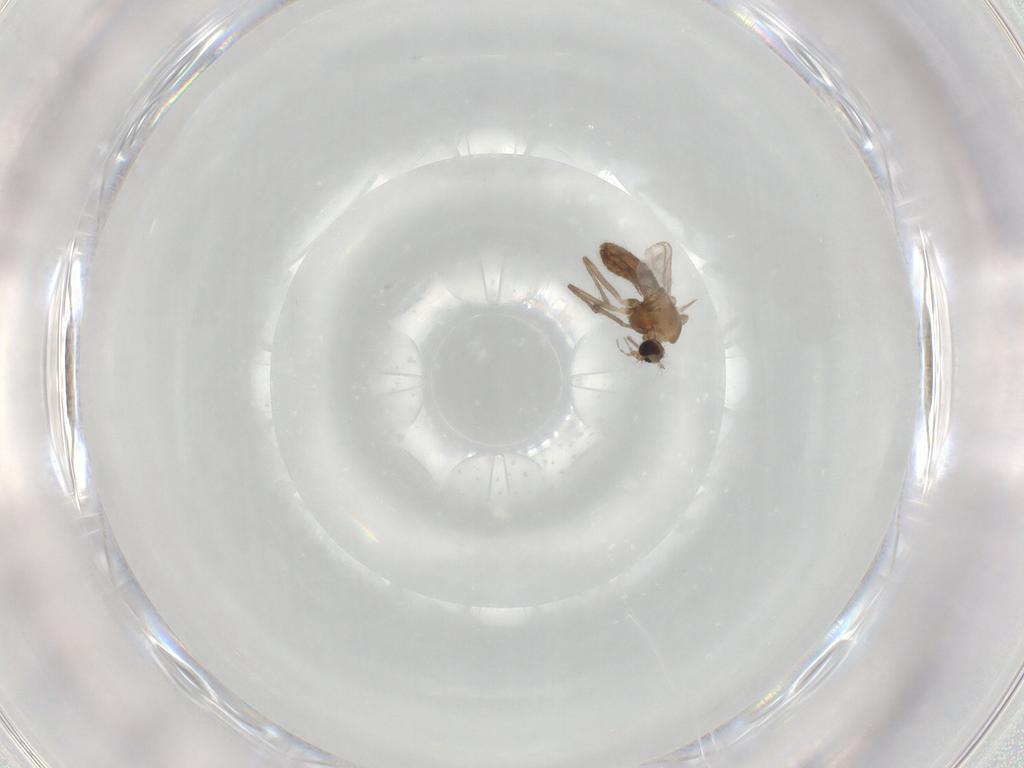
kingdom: Animalia
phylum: Arthropoda
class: Insecta
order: Diptera
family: Chironomidae
